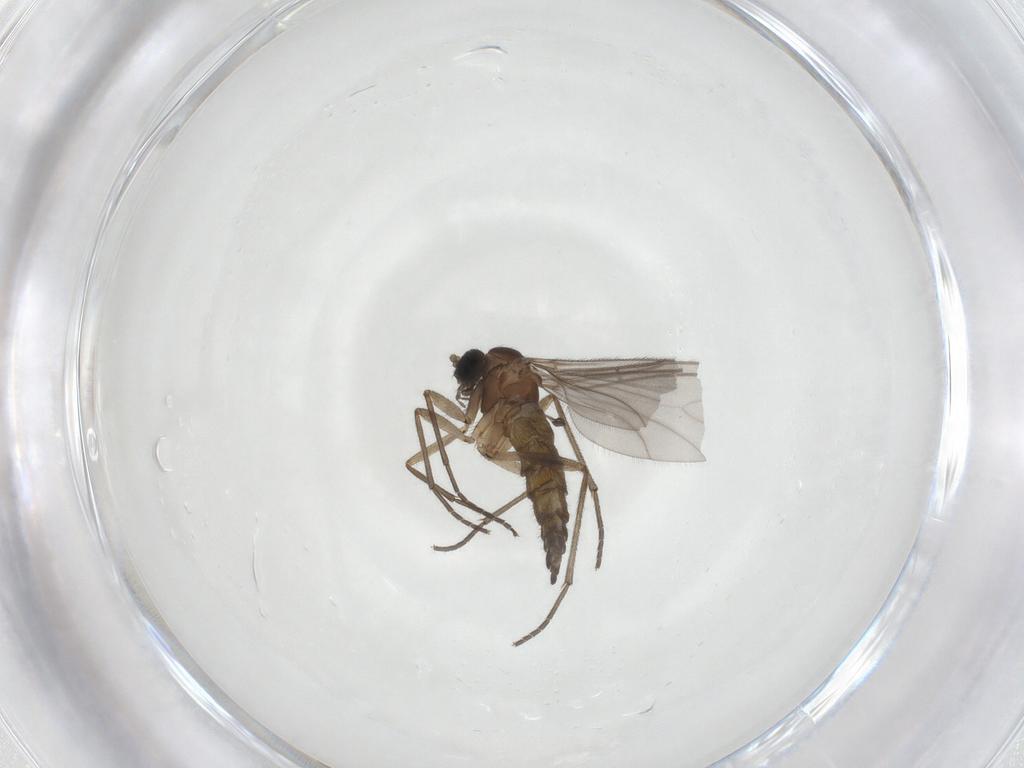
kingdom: Animalia
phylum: Arthropoda
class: Insecta
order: Diptera
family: Sciaridae
